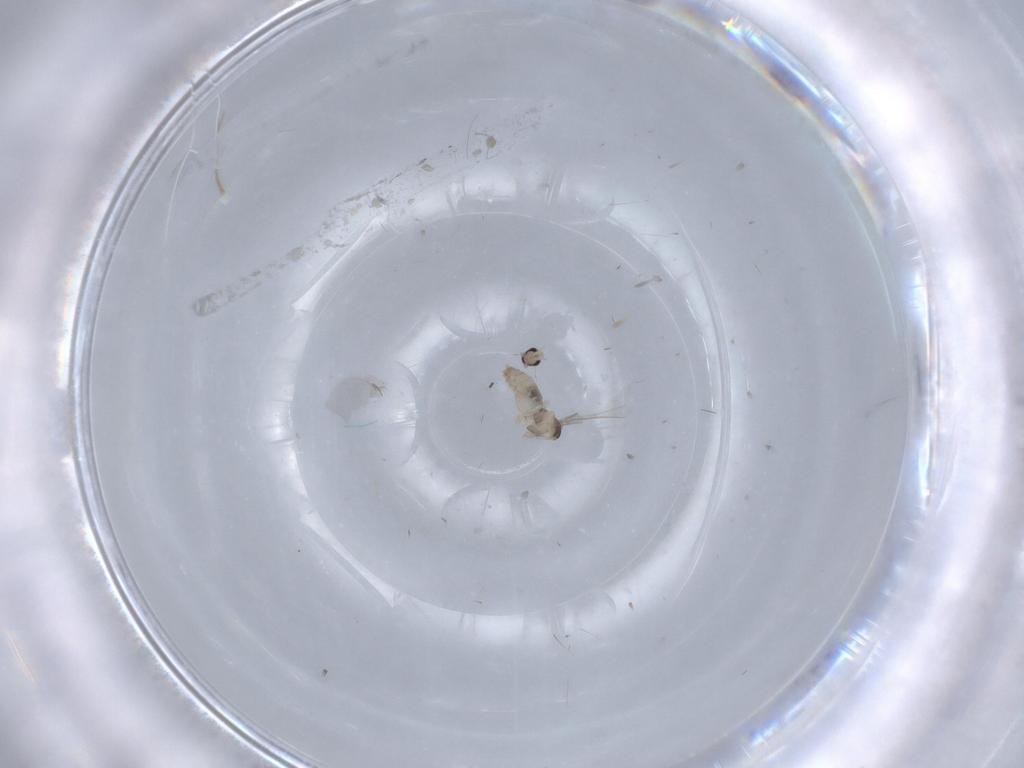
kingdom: Animalia
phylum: Arthropoda
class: Insecta
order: Diptera
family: Cecidomyiidae
